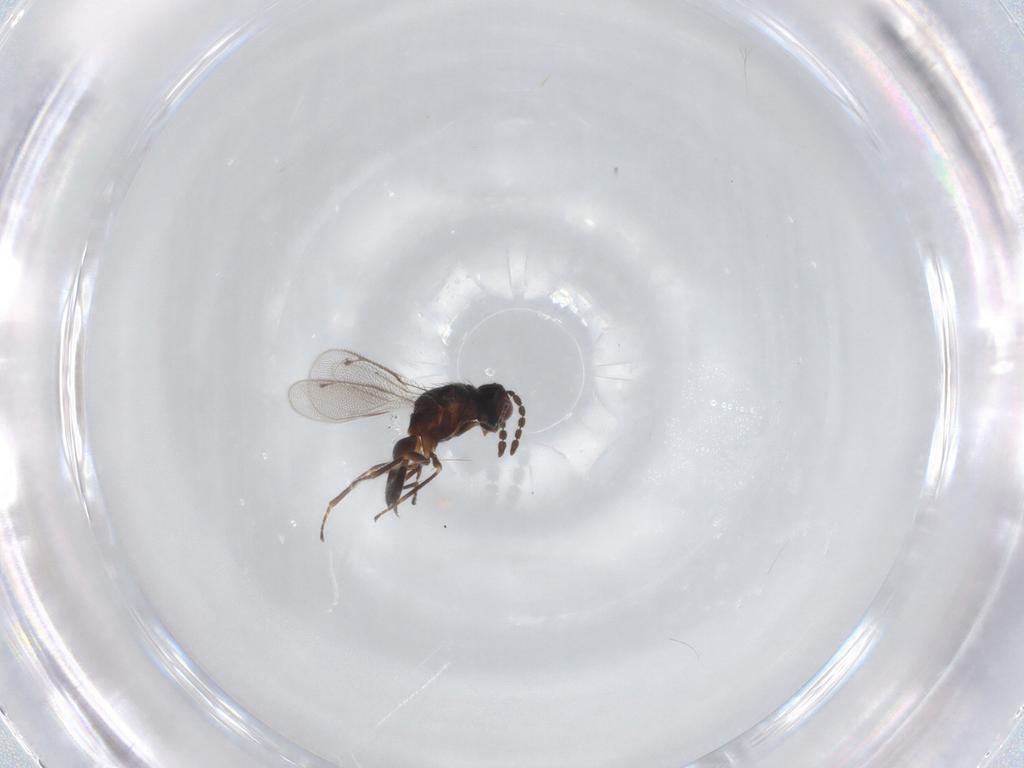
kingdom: Animalia
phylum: Arthropoda
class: Insecta
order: Hymenoptera
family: Eulophidae
